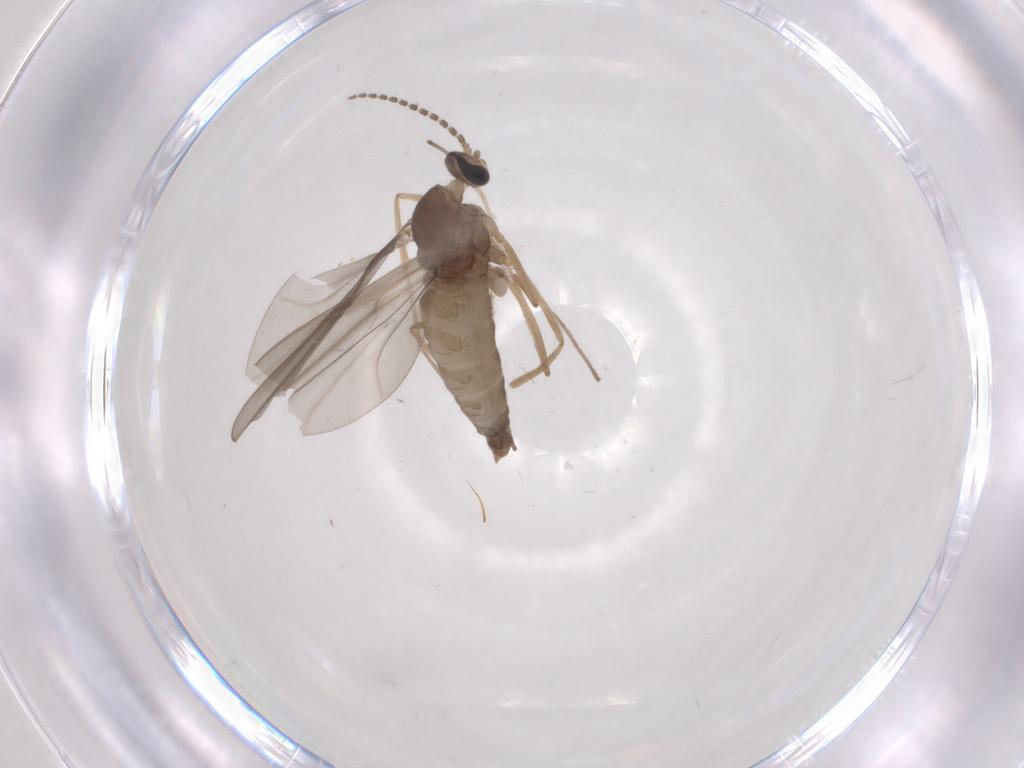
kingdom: Animalia
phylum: Arthropoda
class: Insecta
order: Diptera
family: Cecidomyiidae
